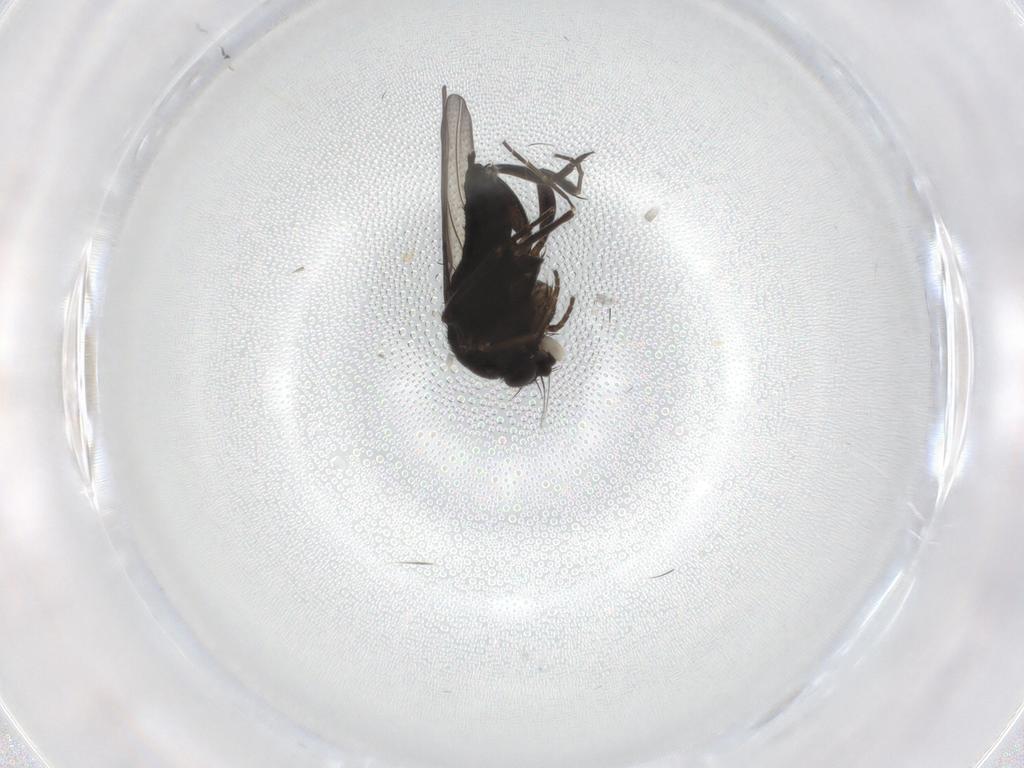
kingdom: Animalia
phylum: Arthropoda
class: Insecta
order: Diptera
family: Phoridae
